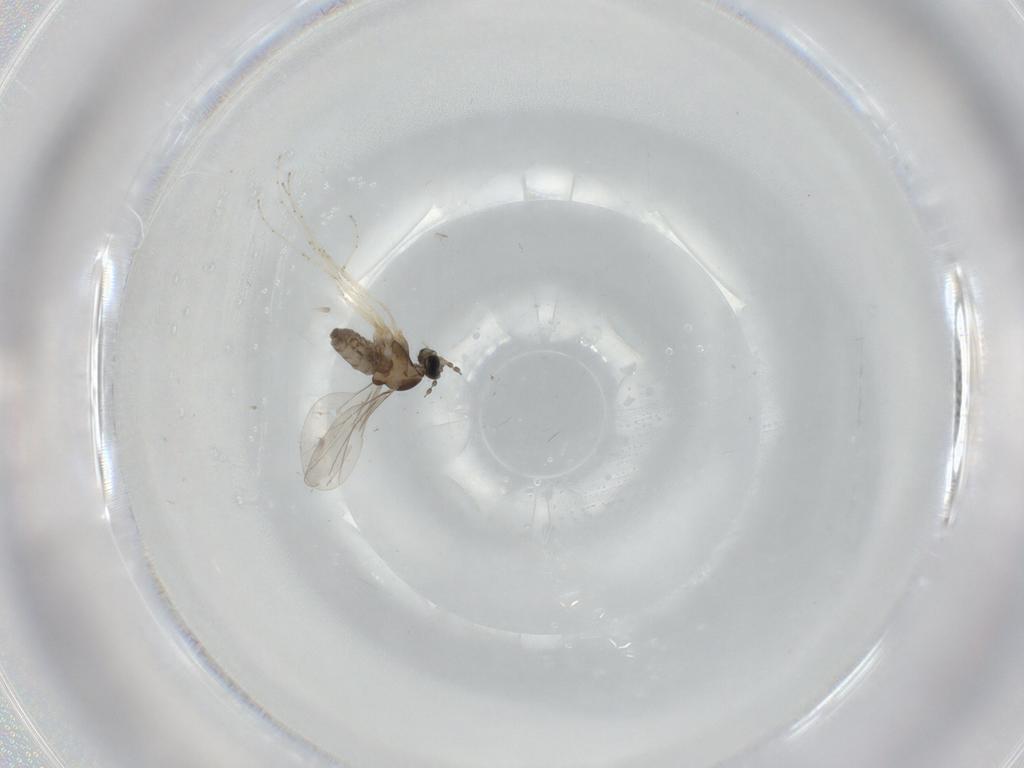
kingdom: Animalia
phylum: Arthropoda
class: Insecta
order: Diptera
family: Cecidomyiidae
